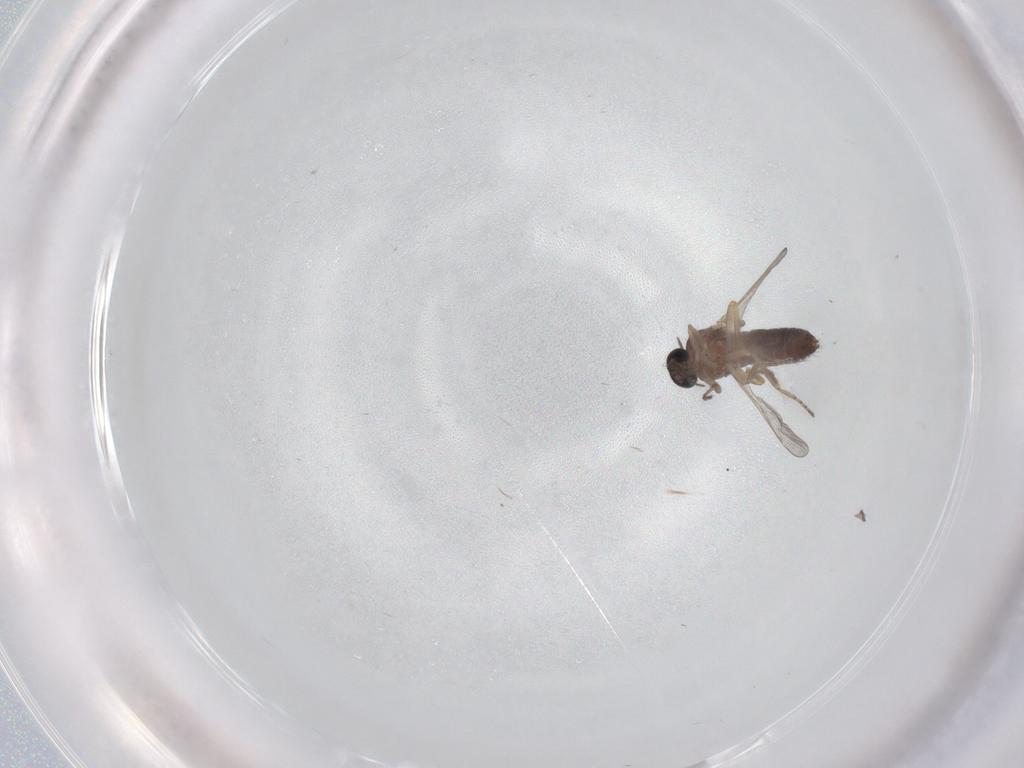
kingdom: Animalia
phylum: Arthropoda
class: Insecta
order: Diptera
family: Ceratopogonidae
